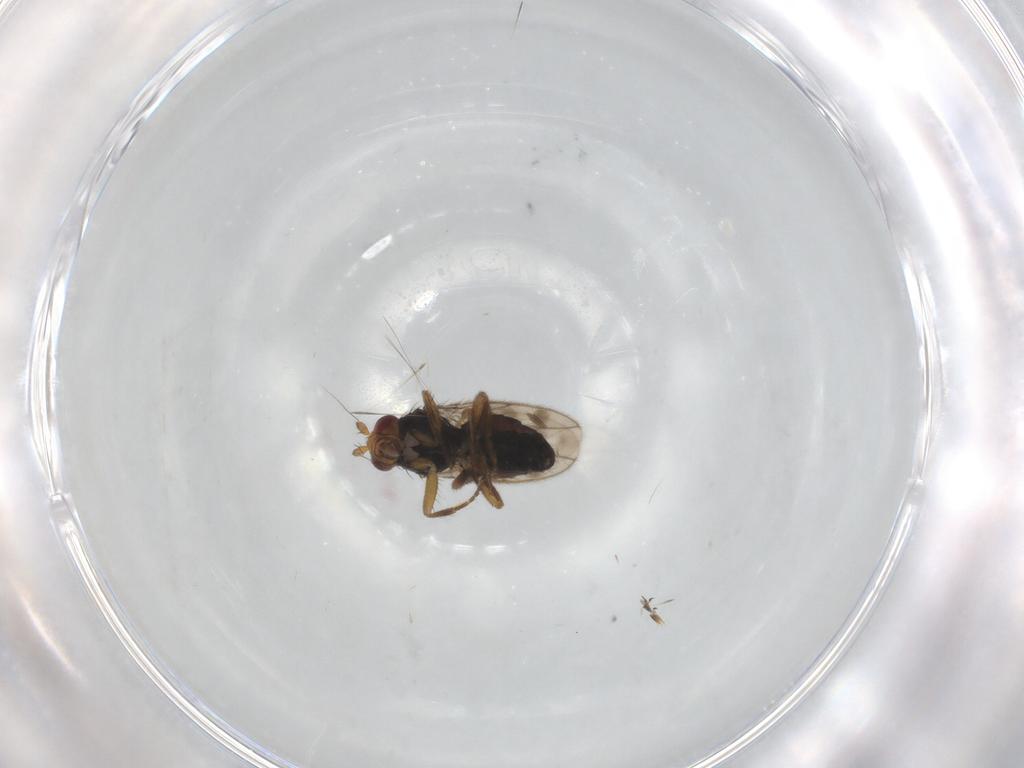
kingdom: Animalia
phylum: Arthropoda
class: Insecta
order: Diptera
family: Sphaeroceridae
